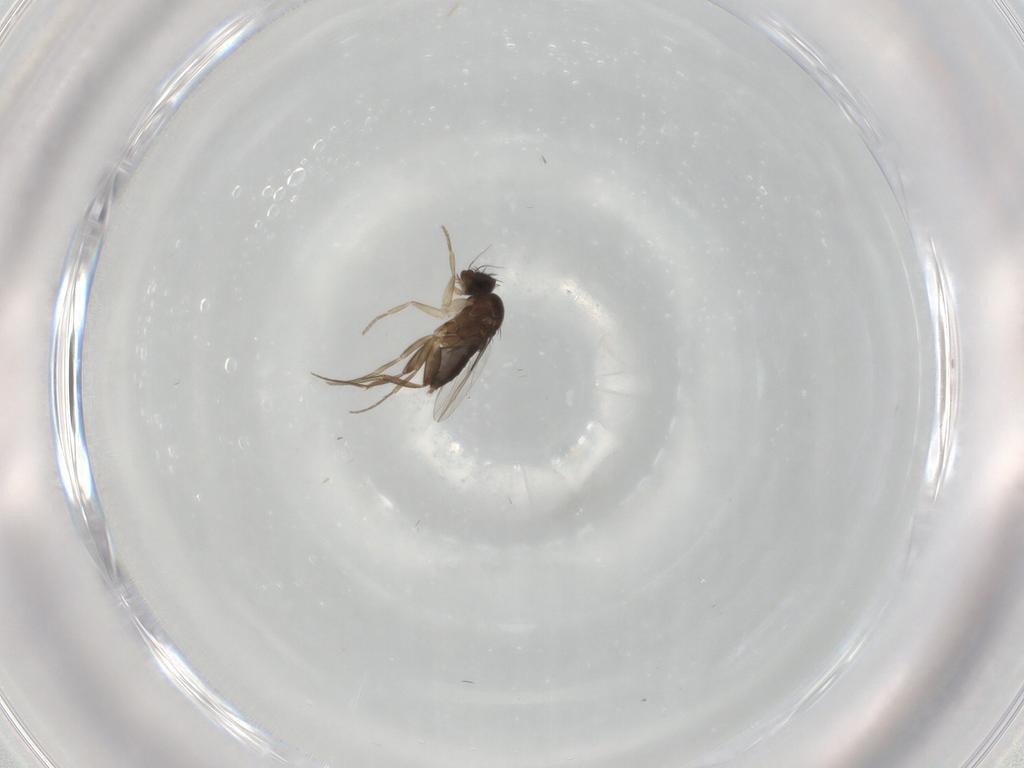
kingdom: Animalia
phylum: Arthropoda
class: Insecta
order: Diptera
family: Phoridae
